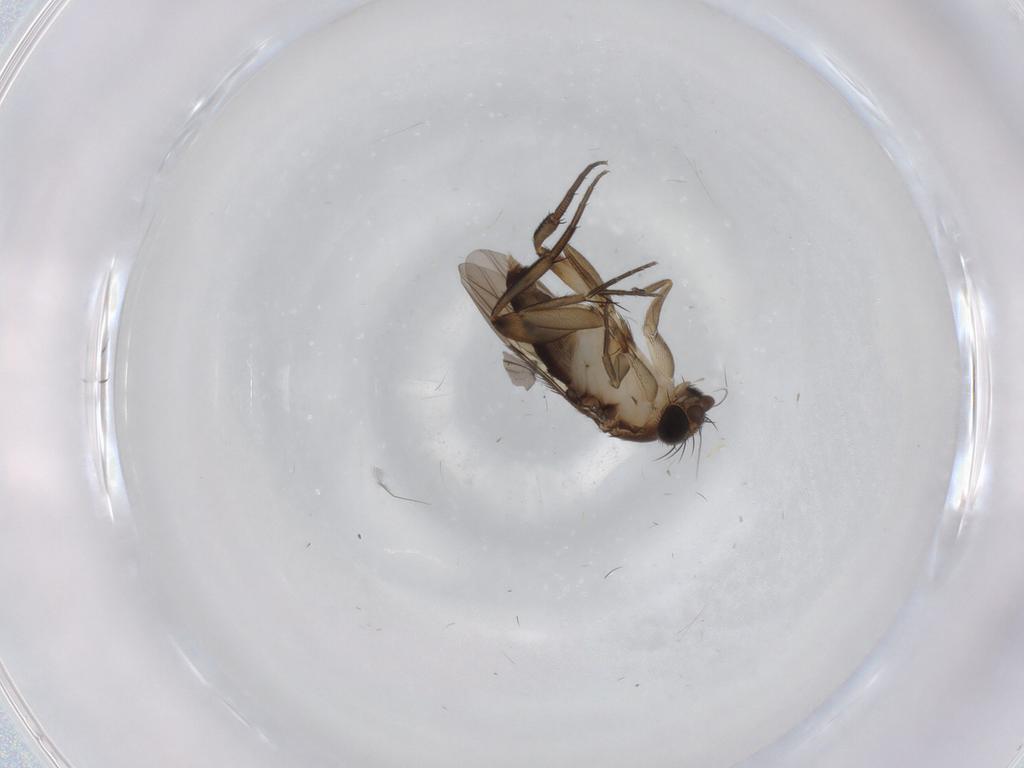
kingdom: Animalia
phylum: Arthropoda
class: Insecta
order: Diptera
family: Phoridae
